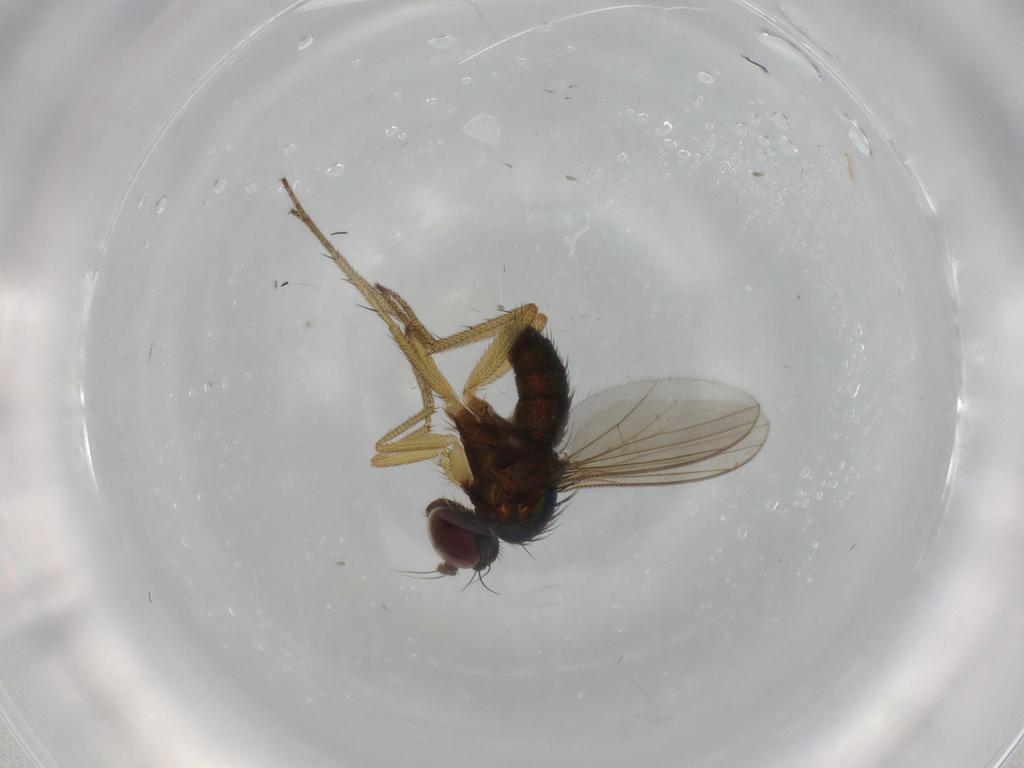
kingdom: Animalia
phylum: Arthropoda
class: Insecta
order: Diptera
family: Dolichopodidae
